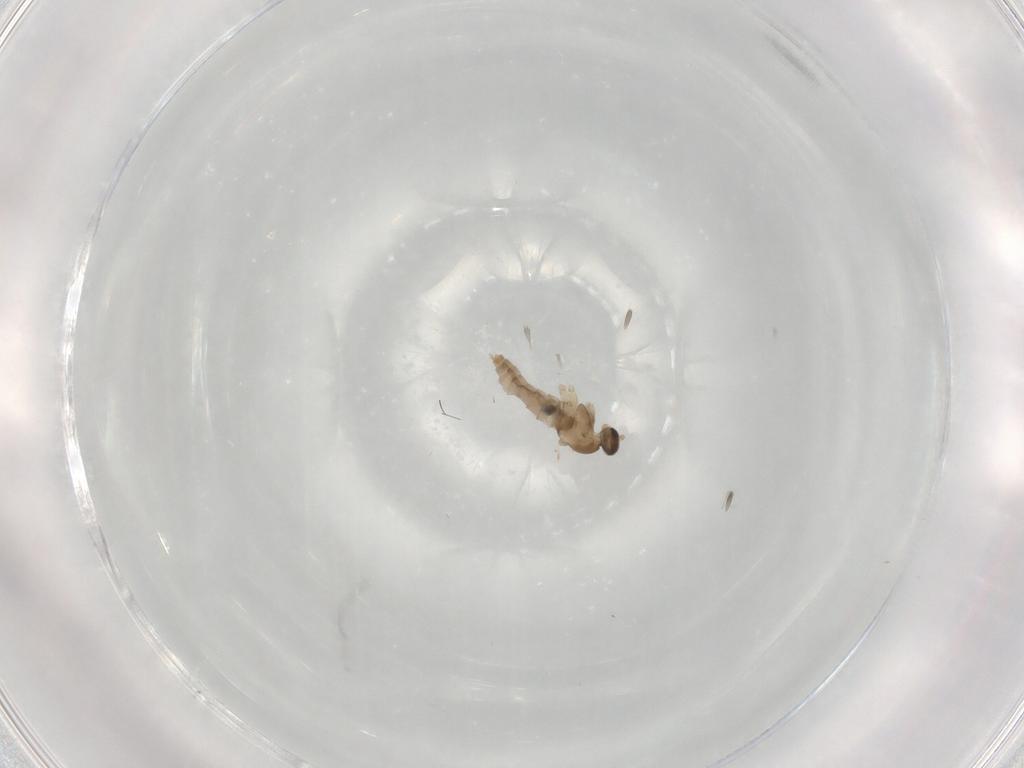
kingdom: Animalia
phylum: Arthropoda
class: Insecta
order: Diptera
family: Cecidomyiidae
